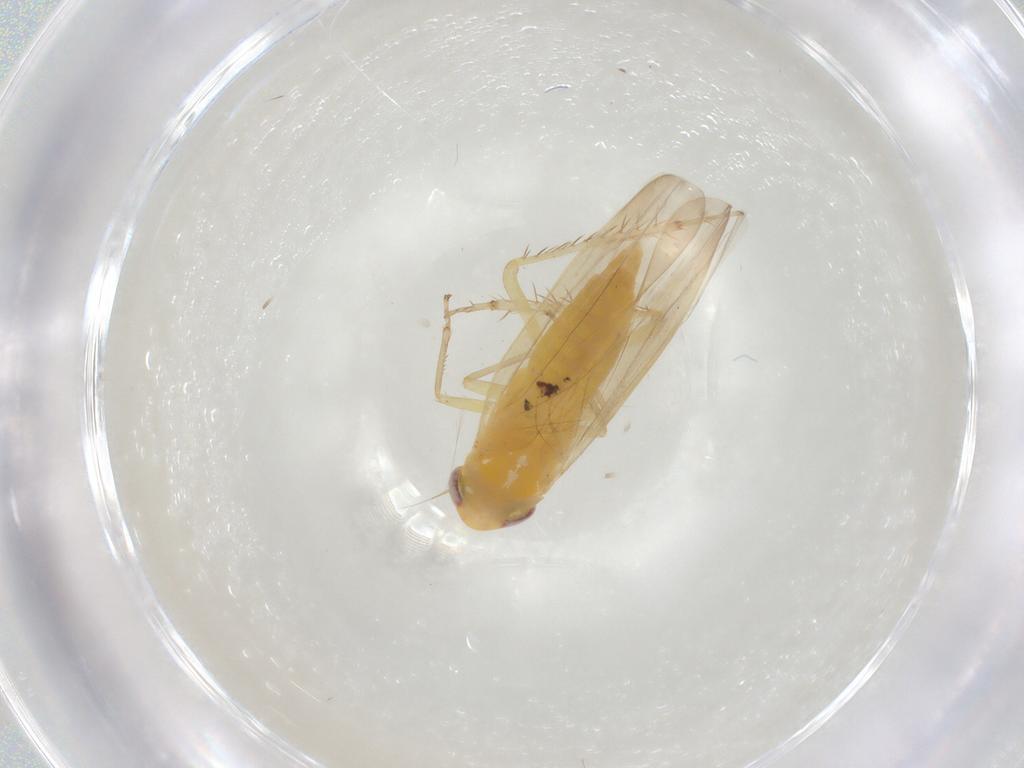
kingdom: Animalia
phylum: Arthropoda
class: Insecta
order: Hemiptera
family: Cicadellidae
